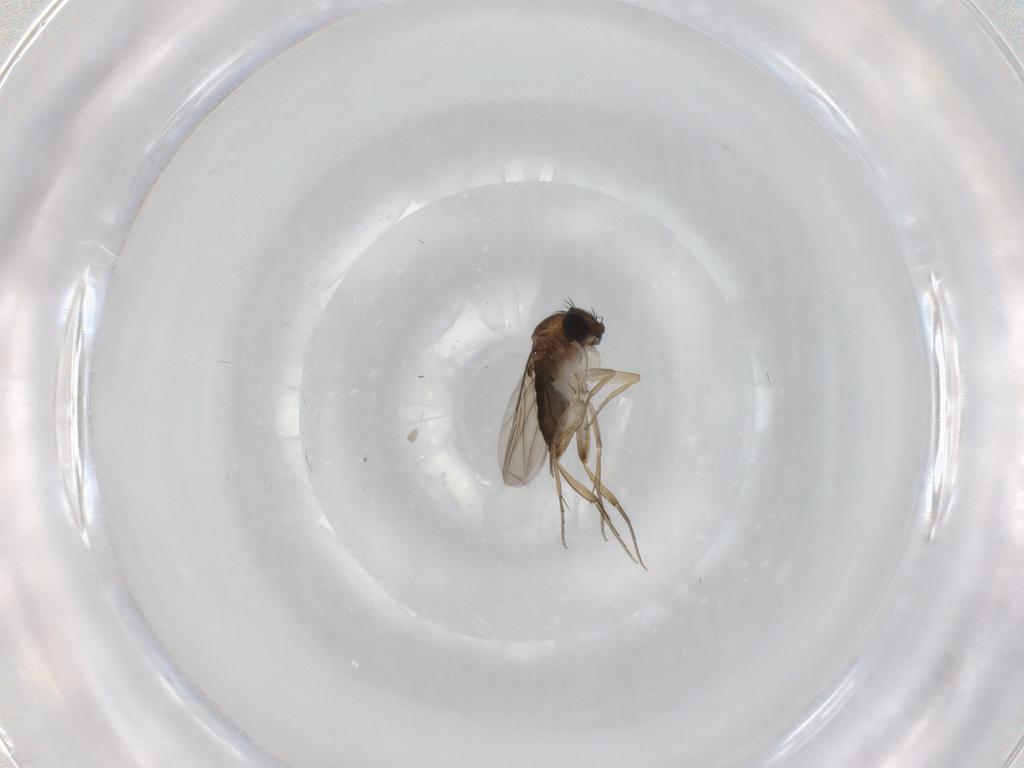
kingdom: Animalia
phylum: Arthropoda
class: Insecta
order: Diptera
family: Phoridae
